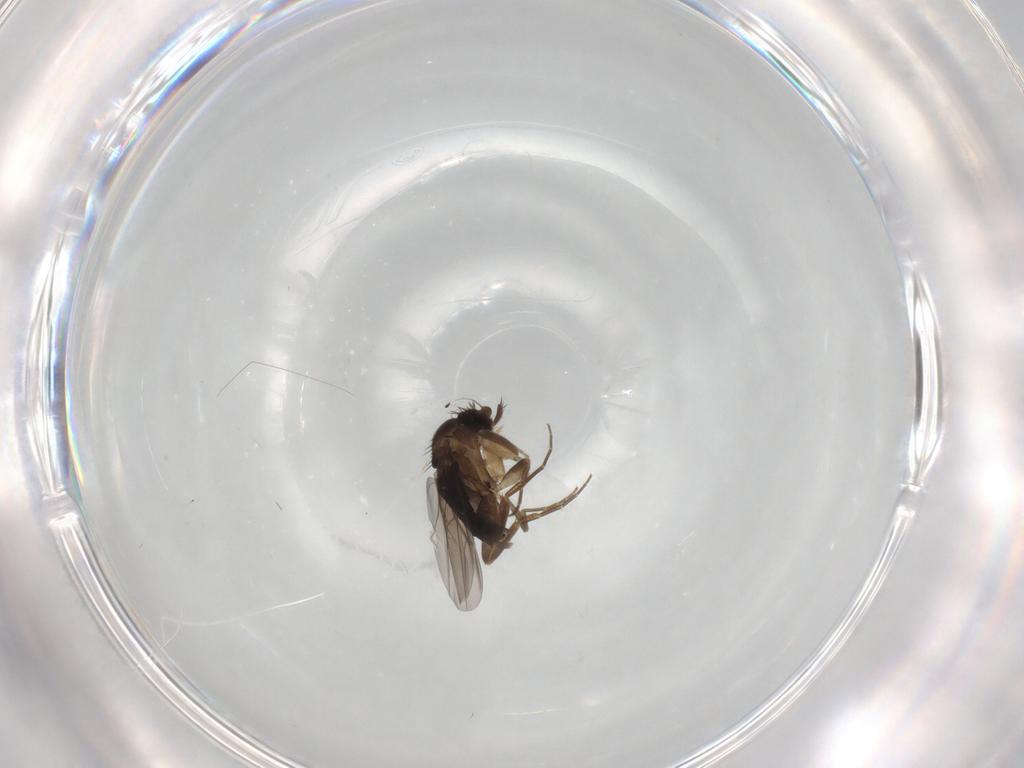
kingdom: Animalia
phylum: Arthropoda
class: Insecta
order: Diptera
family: Phoridae
